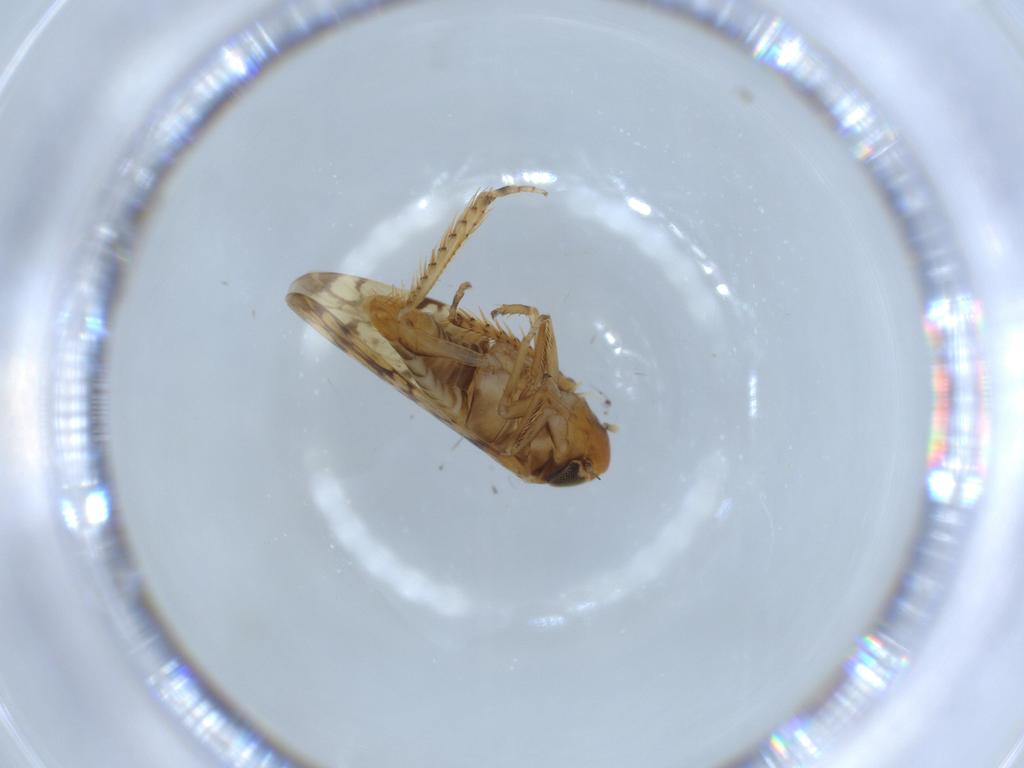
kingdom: Animalia
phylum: Arthropoda
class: Insecta
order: Hemiptera
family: Cicadellidae
